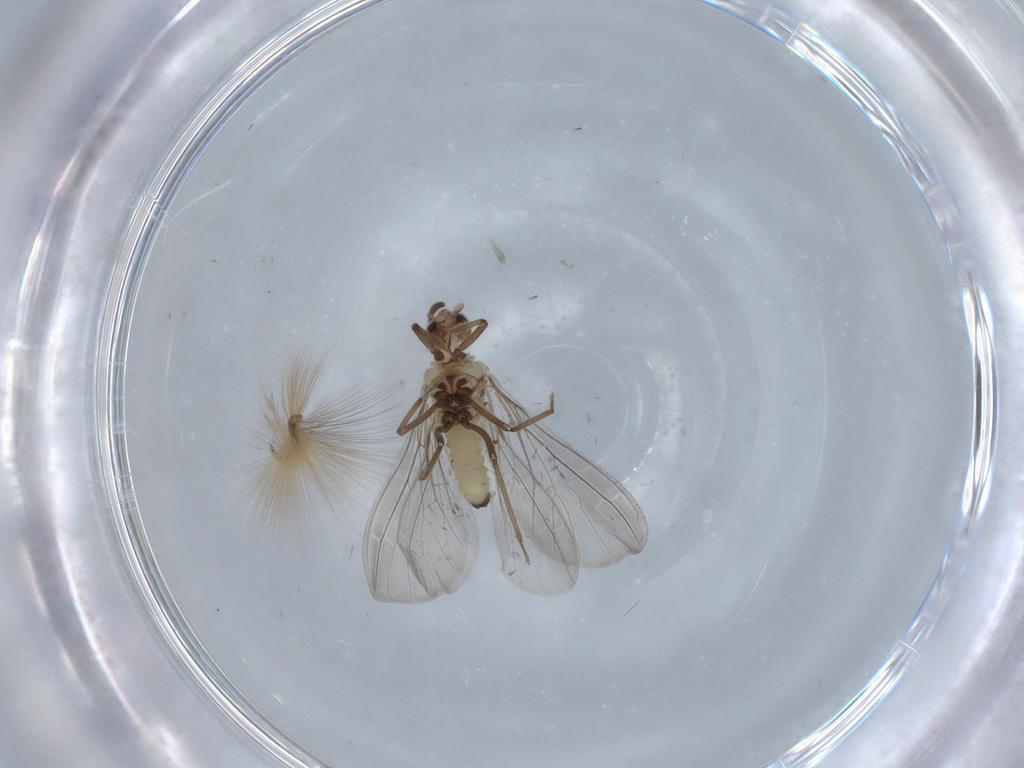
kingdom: Animalia
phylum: Arthropoda
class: Insecta
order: Neuroptera
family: Coniopterygidae
